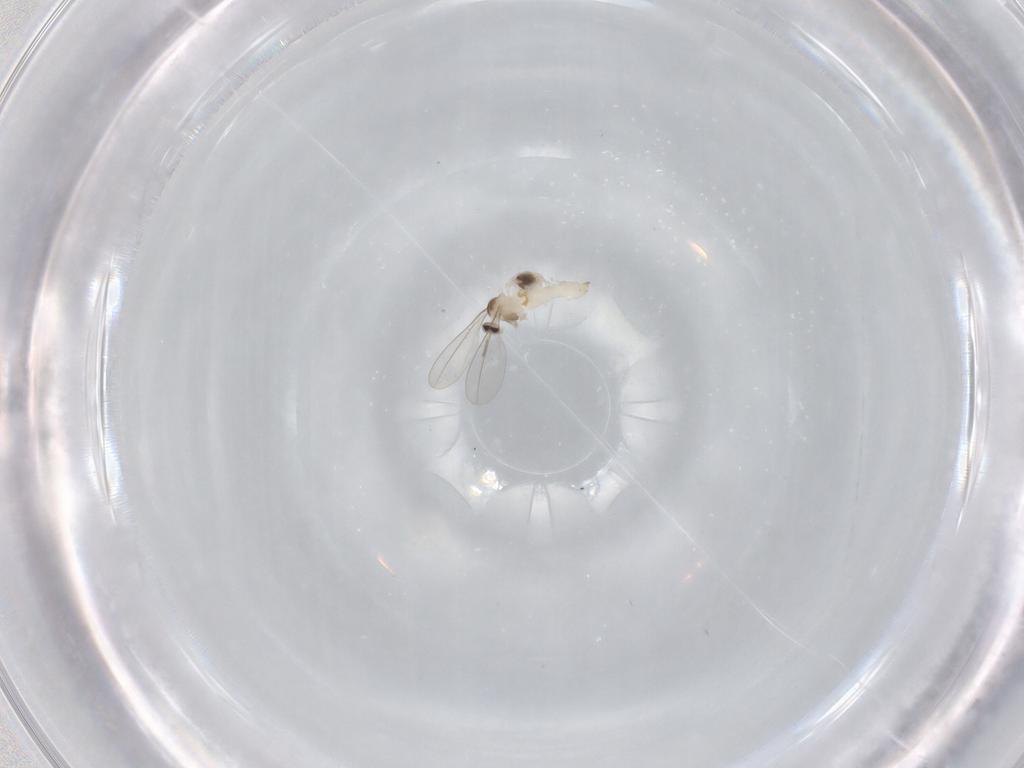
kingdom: Animalia
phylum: Arthropoda
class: Insecta
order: Diptera
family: Cecidomyiidae
